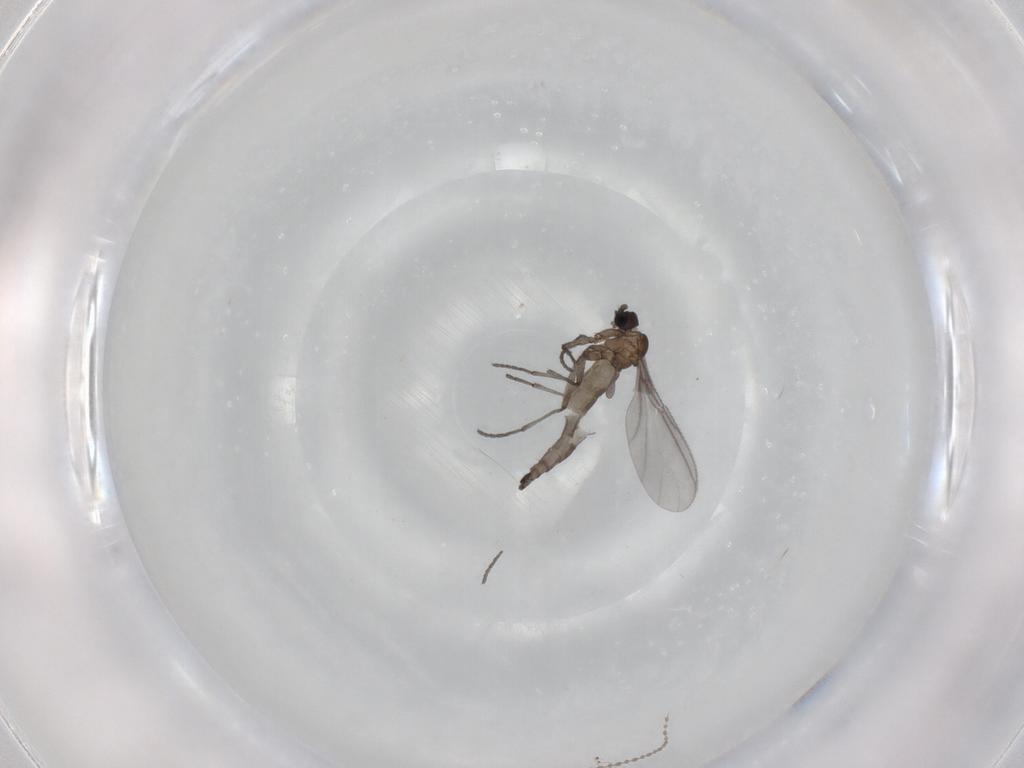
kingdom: Animalia
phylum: Arthropoda
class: Insecta
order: Diptera
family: Sciaridae
